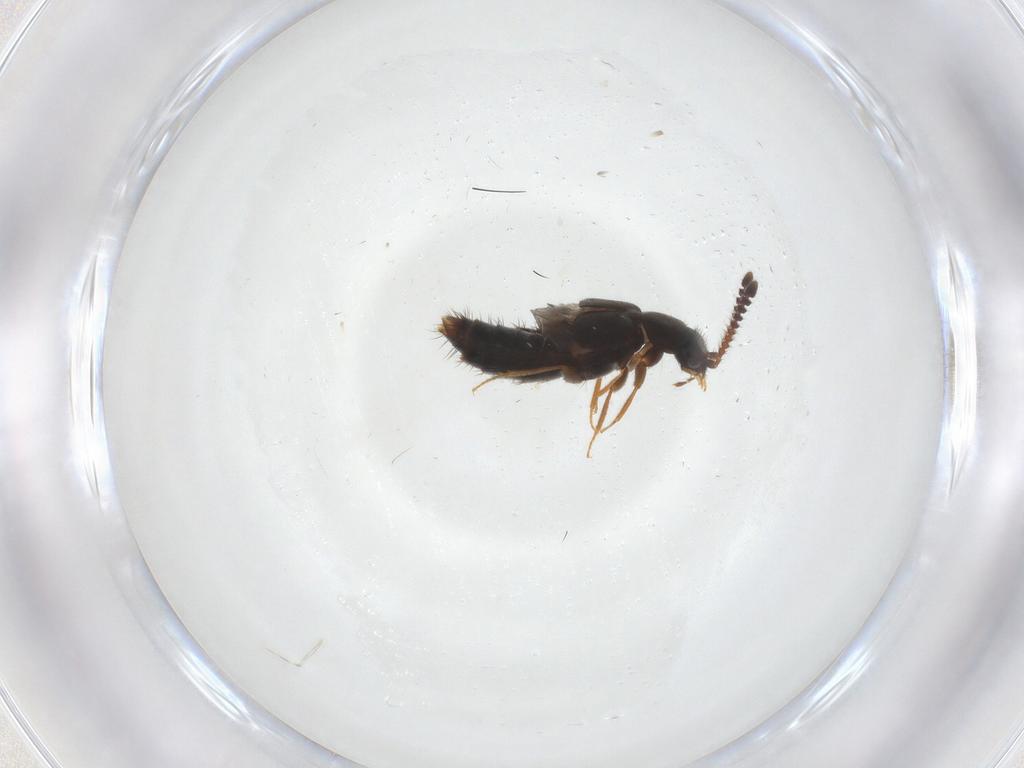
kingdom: Animalia
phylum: Arthropoda
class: Insecta
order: Coleoptera
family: Staphylinidae
